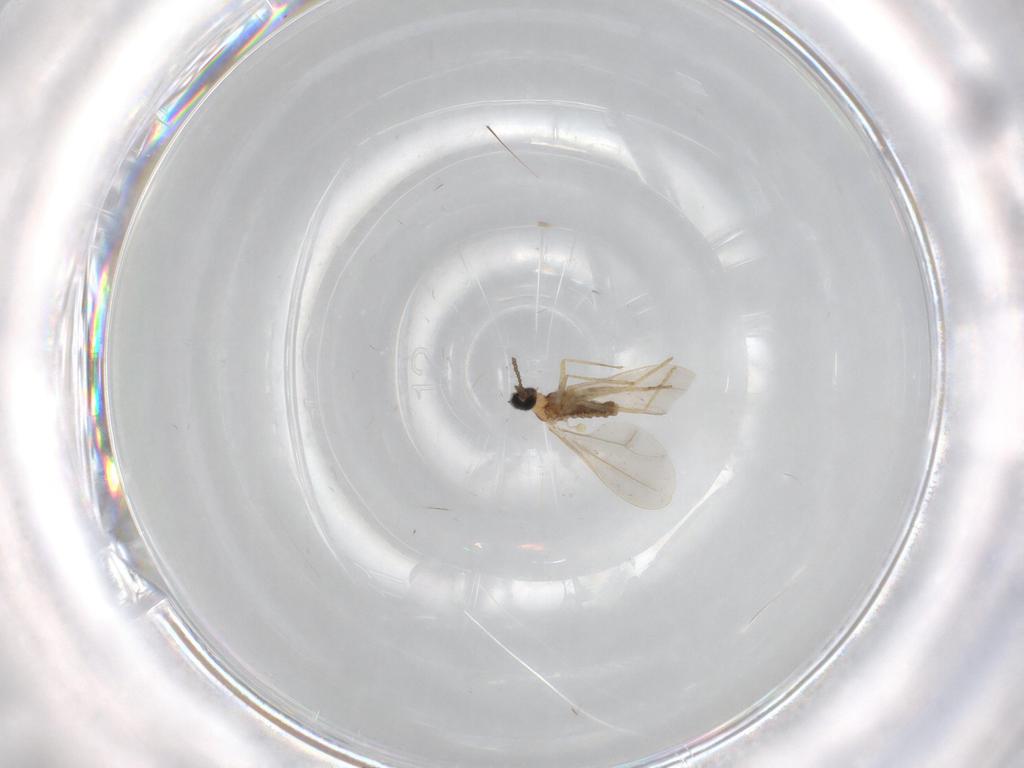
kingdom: Animalia
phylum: Arthropoda
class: Insecta
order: Diptera
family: Cecidomyiidae
